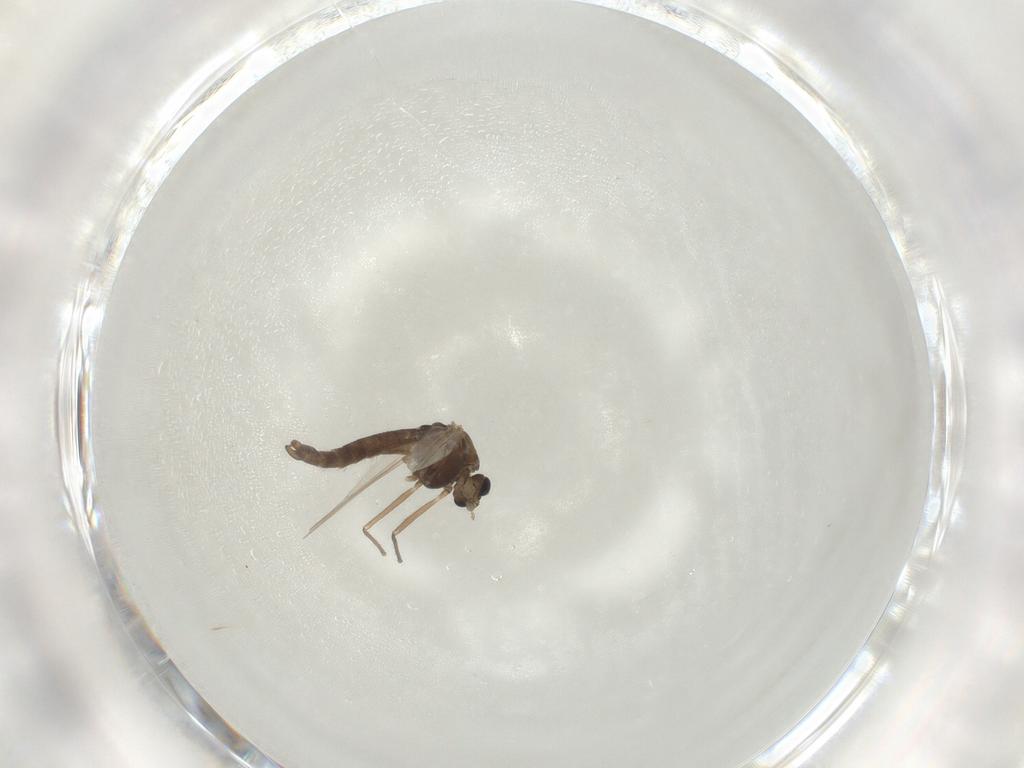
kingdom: Animalia
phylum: Arthropoda
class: Insecta
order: Diptera
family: Chironomidae
